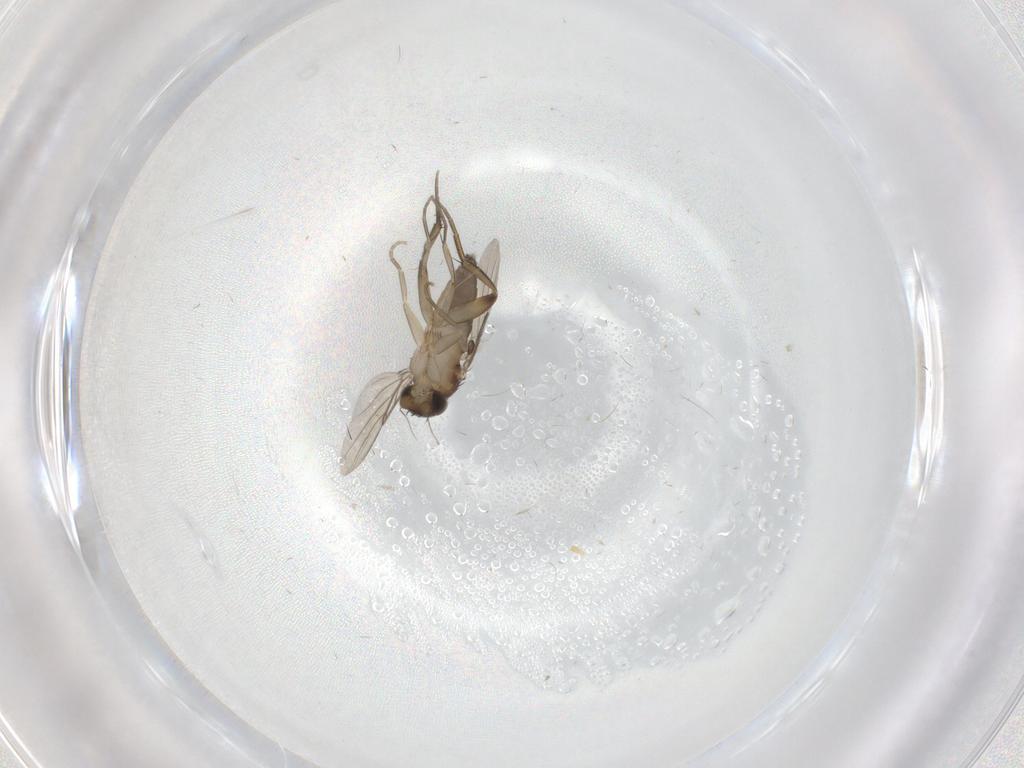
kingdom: Animalia
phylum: Arthropoda
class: Insecta
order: Diptera
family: Phoridae
